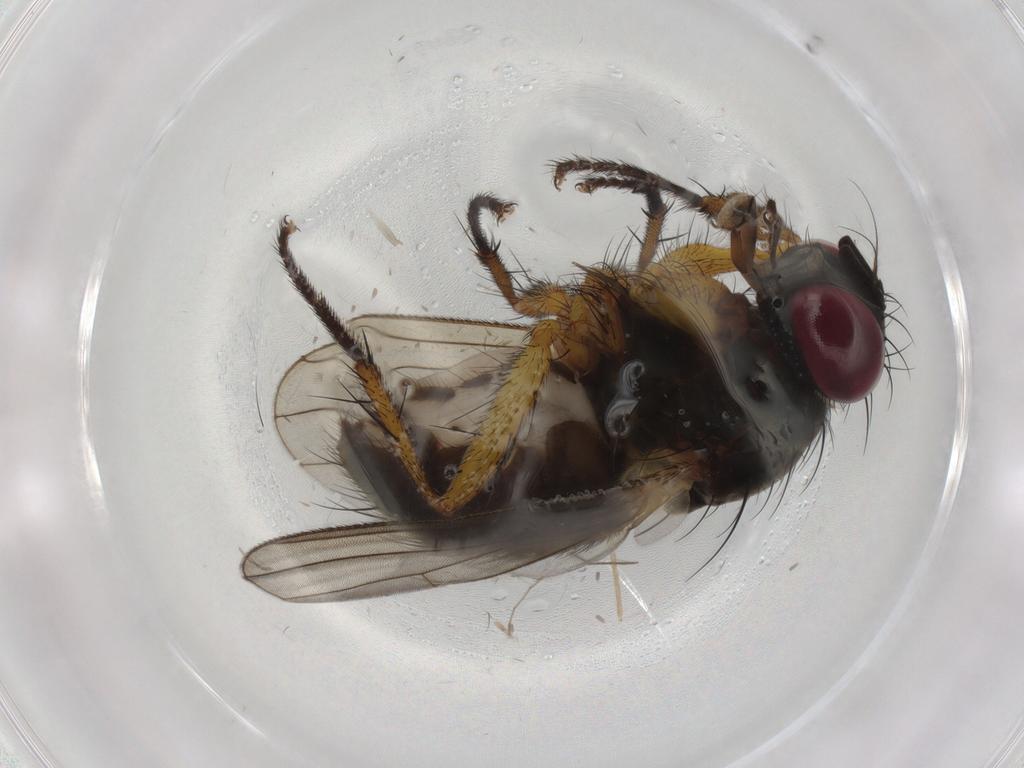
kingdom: Animalia
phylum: Arthropoda
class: Insecta
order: Diptera
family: Muscidae
